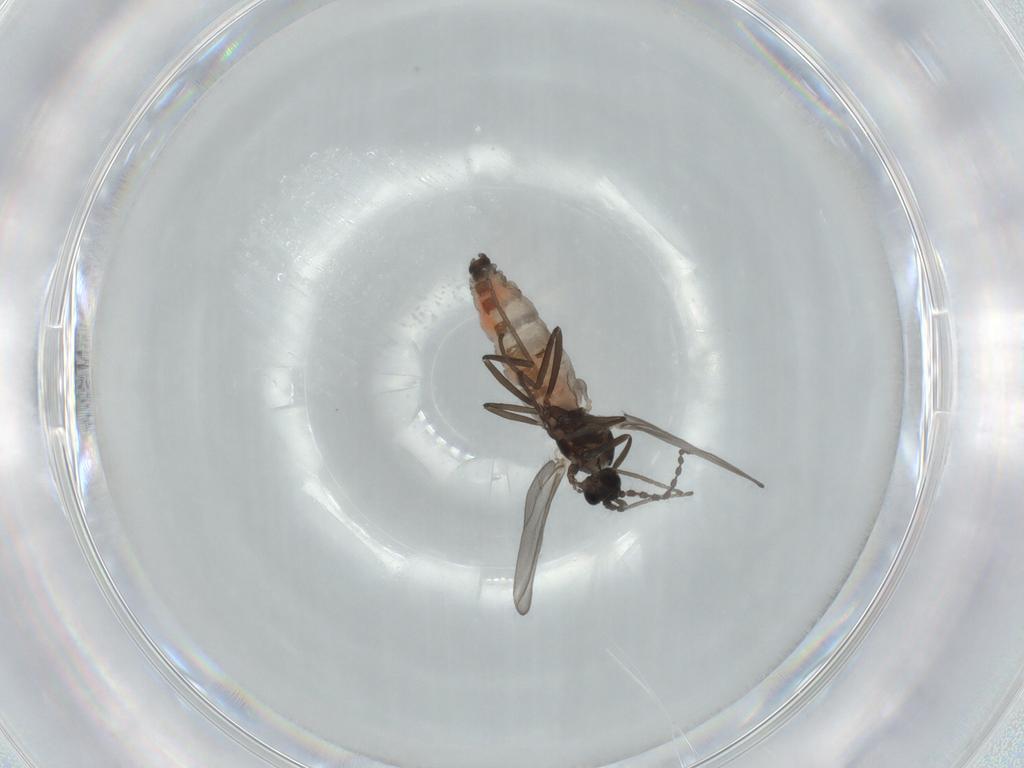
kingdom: Animalia
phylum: Arthropoda
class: Insecta
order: Diptera
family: Cecidomyiidae
